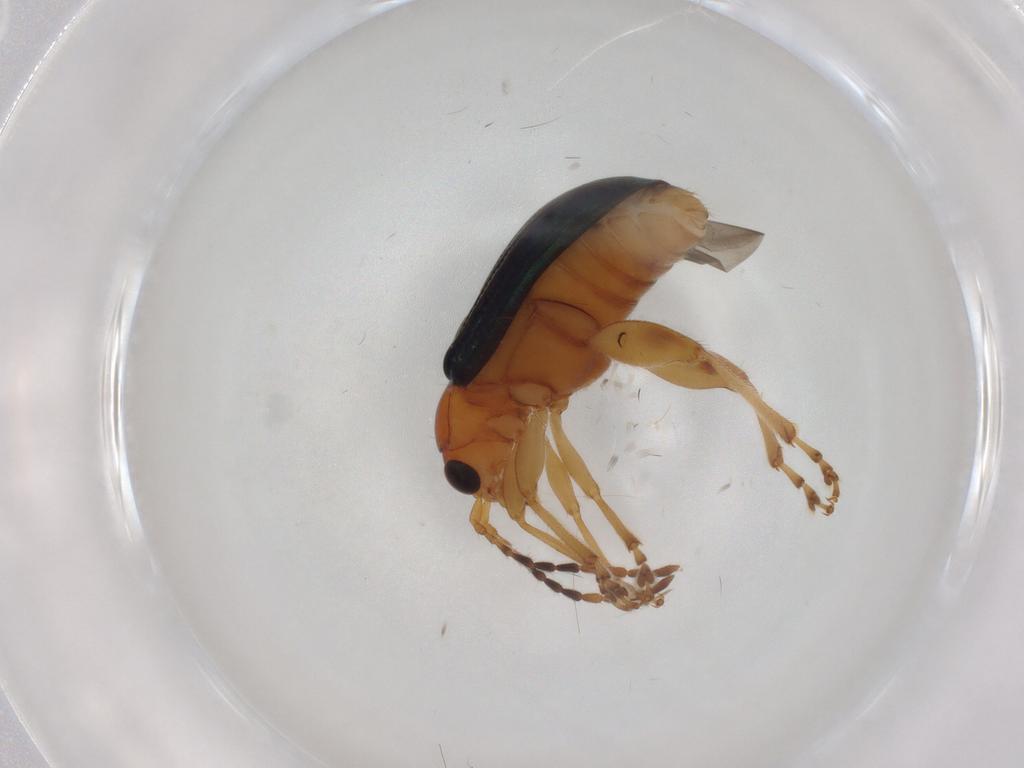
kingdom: Animalia
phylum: Arthropoda
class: Insecta
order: Coleoptera
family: Chrysomelidae
